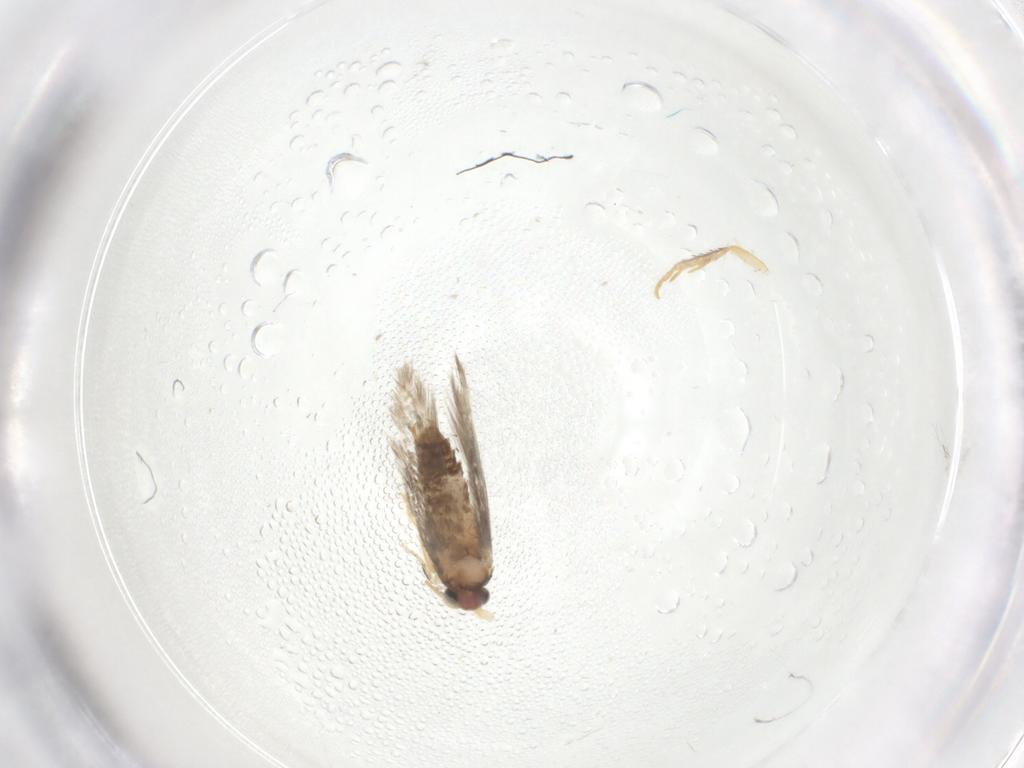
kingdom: Animalia
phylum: Arthropoda
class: Insecta
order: Lepidoptera
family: Nepticulidae
